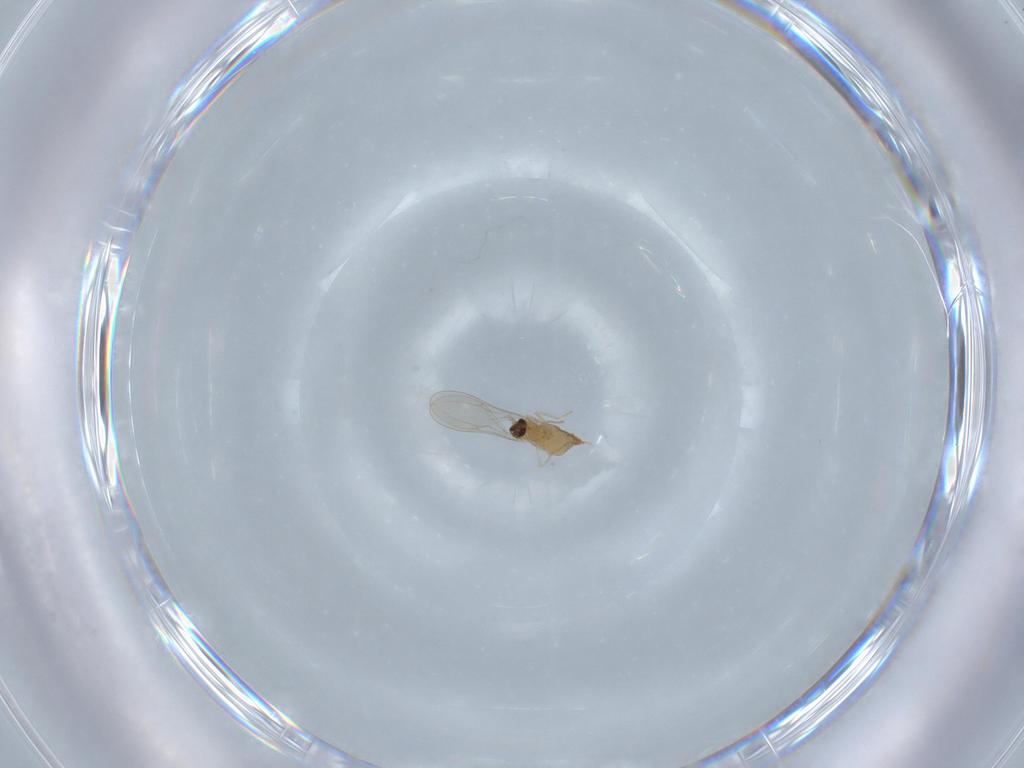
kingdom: Animalia
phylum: Arthropoda
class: Insecta
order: Diptera
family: Cecidomyiidae
